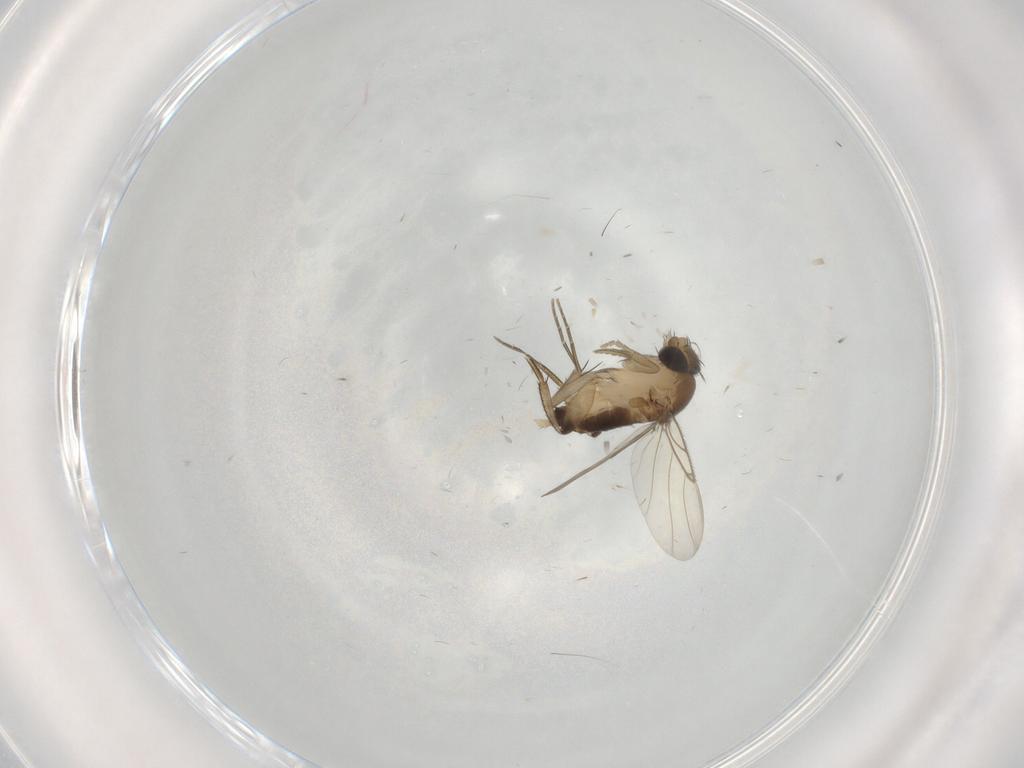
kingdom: Animalia
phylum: Arthropoda
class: Insecta
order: Diptera
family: Phoridae
